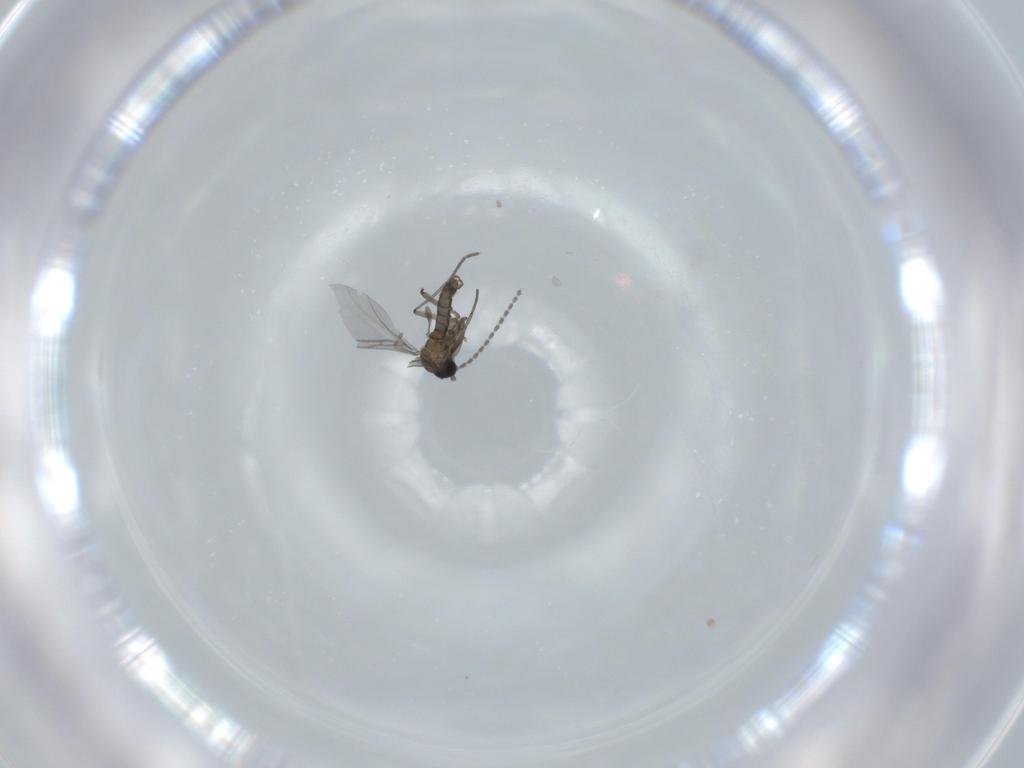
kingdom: Animalia
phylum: Arthropoda
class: Insecta
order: Diptera
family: Sciaridae
